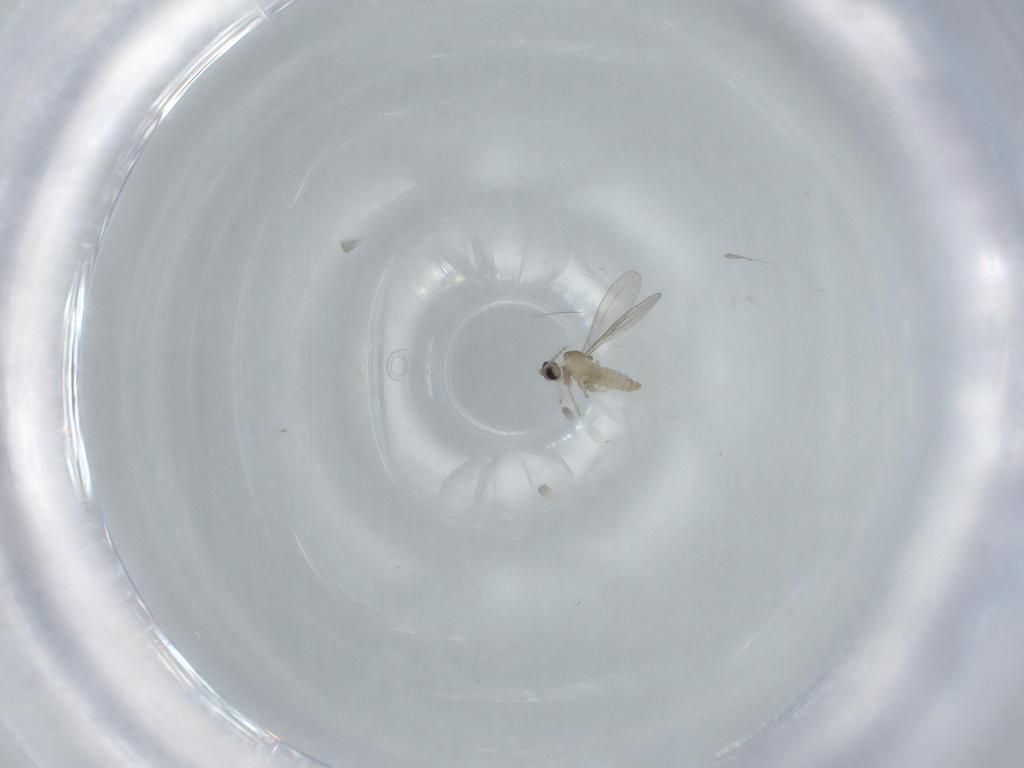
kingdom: Animalia
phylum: Arthropoda
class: Insecta
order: Diptera
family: Cecidomyiidae
